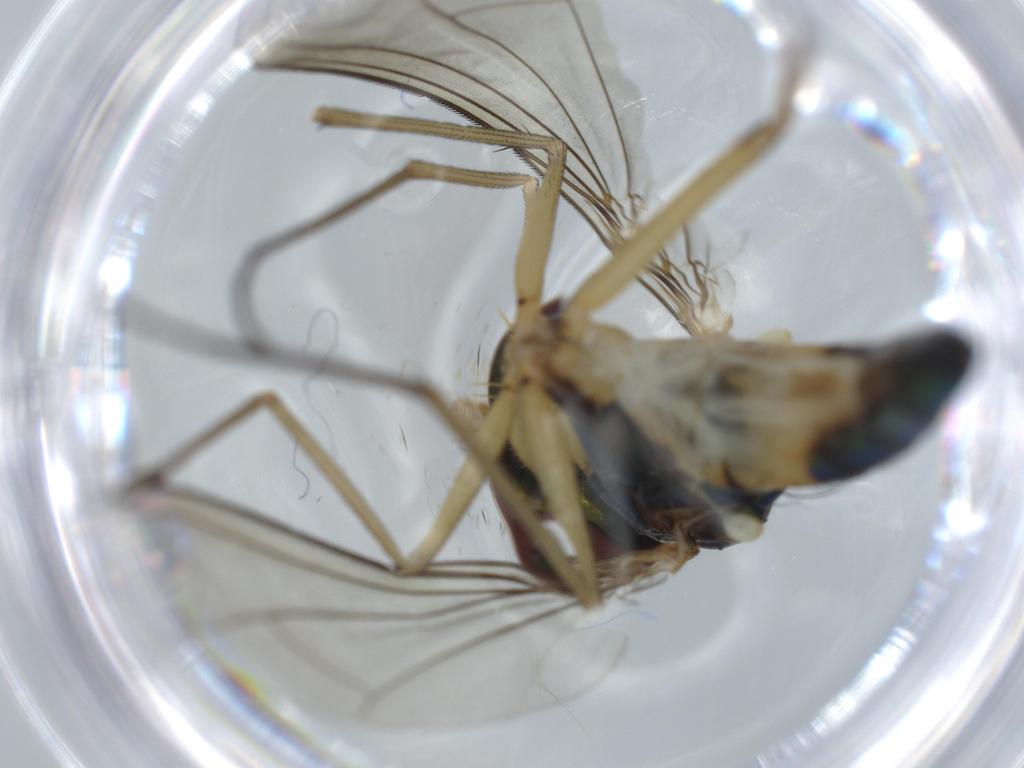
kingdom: Animalia
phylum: Arthropoda
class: Insecta
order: Diptera
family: Dolichopodidae
